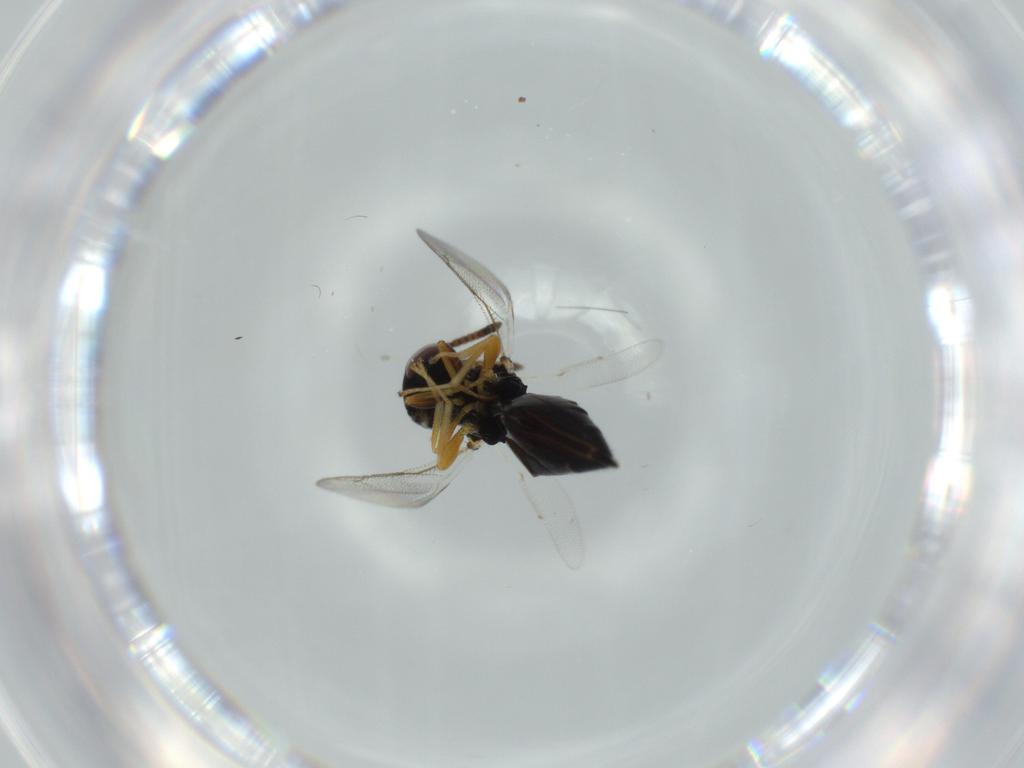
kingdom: Animalia
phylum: Arthropoda
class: Insecta
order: Hymenoptera
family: Pteromalidae
